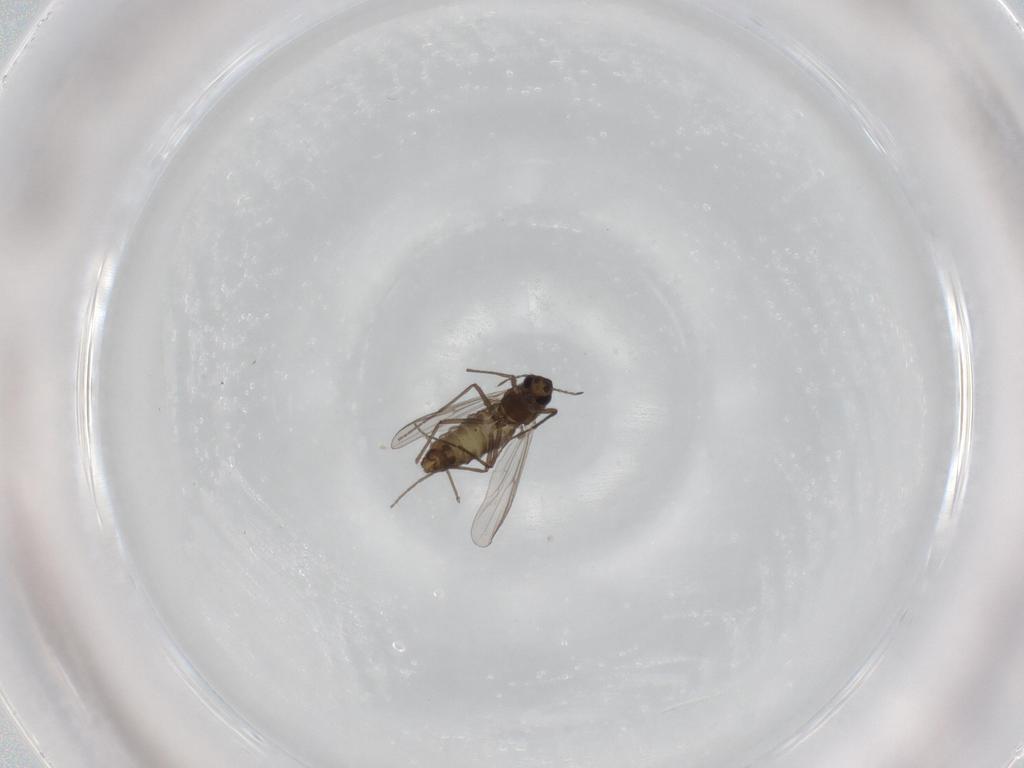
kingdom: Animalia
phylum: Arthropoda
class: Insecta
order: Diptera
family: Chironomidae
